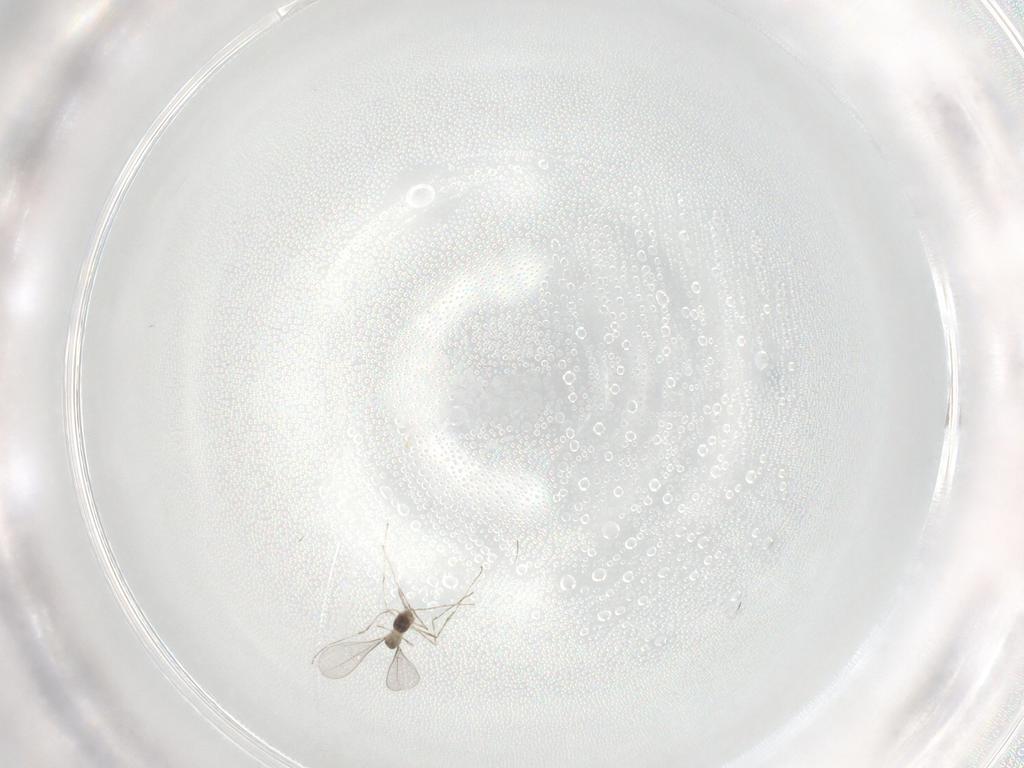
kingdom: Animalia
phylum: Arthropoda
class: Insecta
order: Diptera
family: Cecidomyiidae
